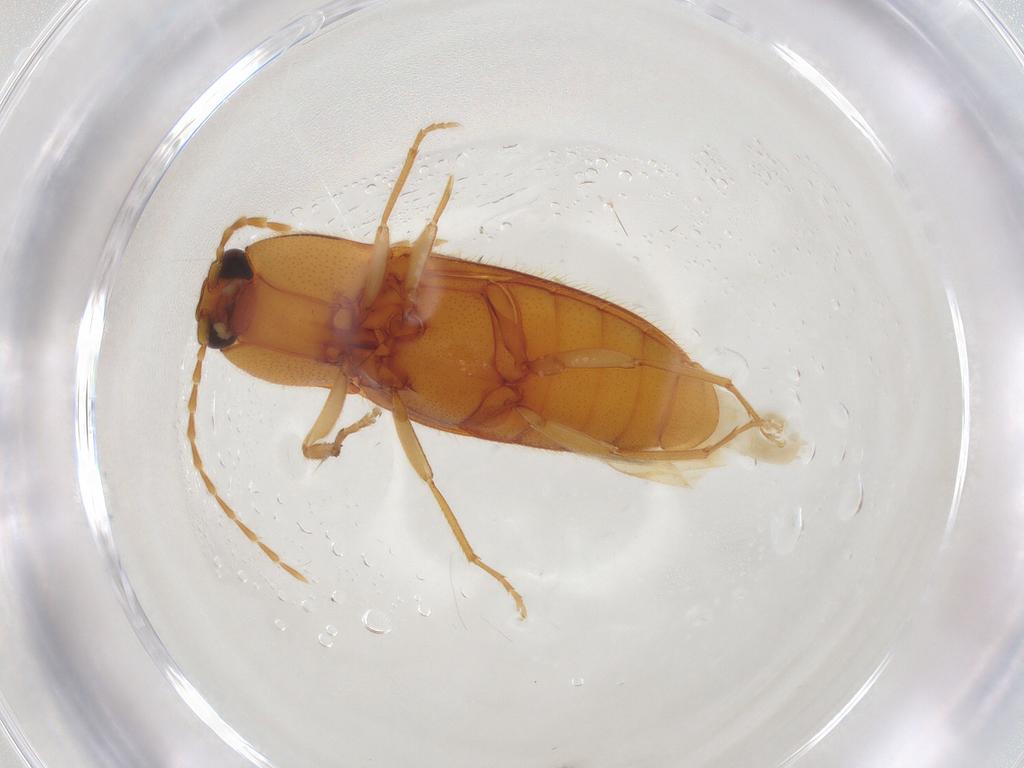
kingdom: Animalia
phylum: Arthropoda
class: Insecta
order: Coleoptera
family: Elateridae
